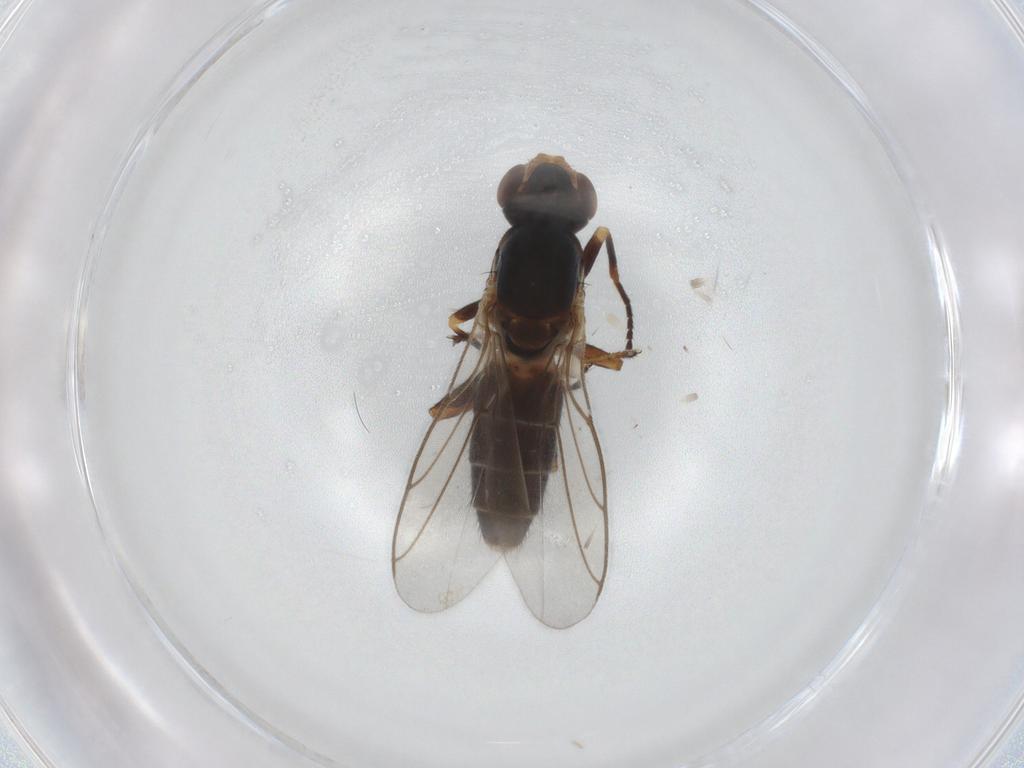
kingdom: Animalia
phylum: Arthropoda
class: Insecta
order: Diptera
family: Chloropidae
